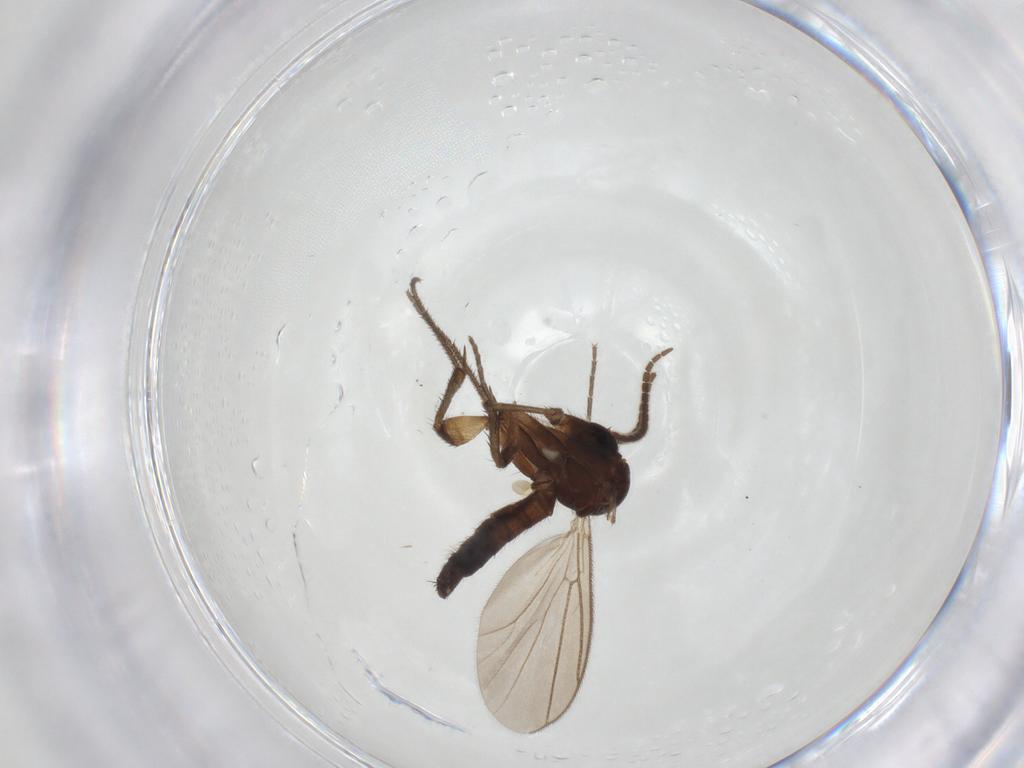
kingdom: Animalia
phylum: Arthropoda
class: Insecta
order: Diptera
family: Mycetophilidae
